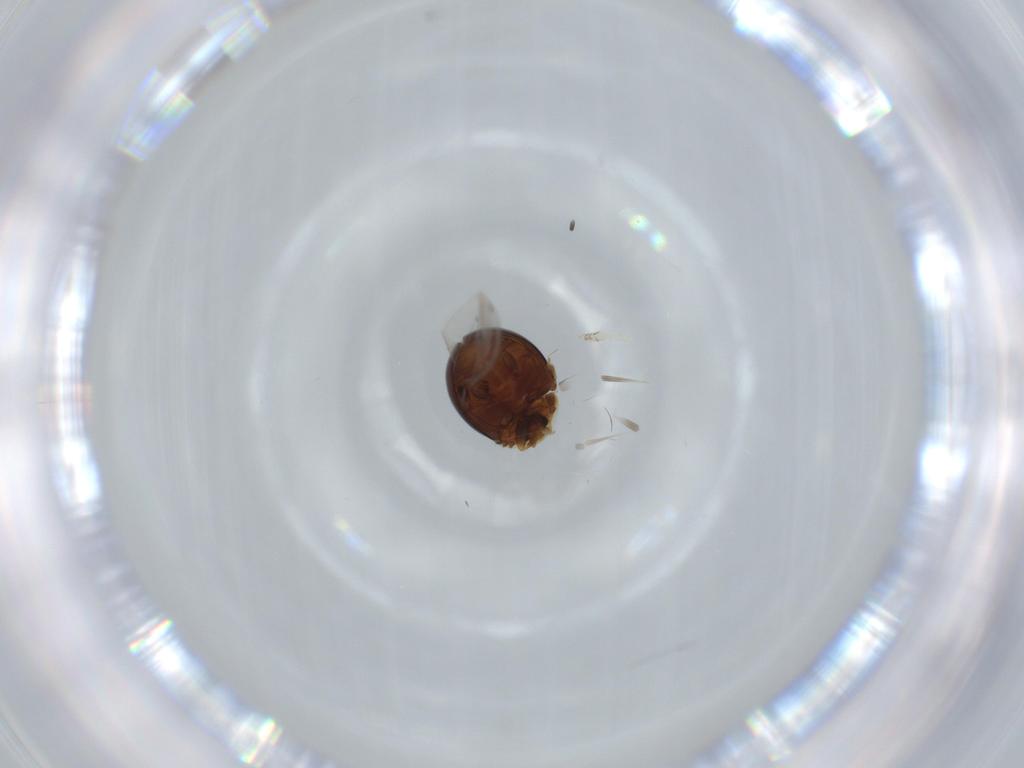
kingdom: Animalia
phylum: Arthropoda
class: Insecta
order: Coleoptera
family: Corylophidae
